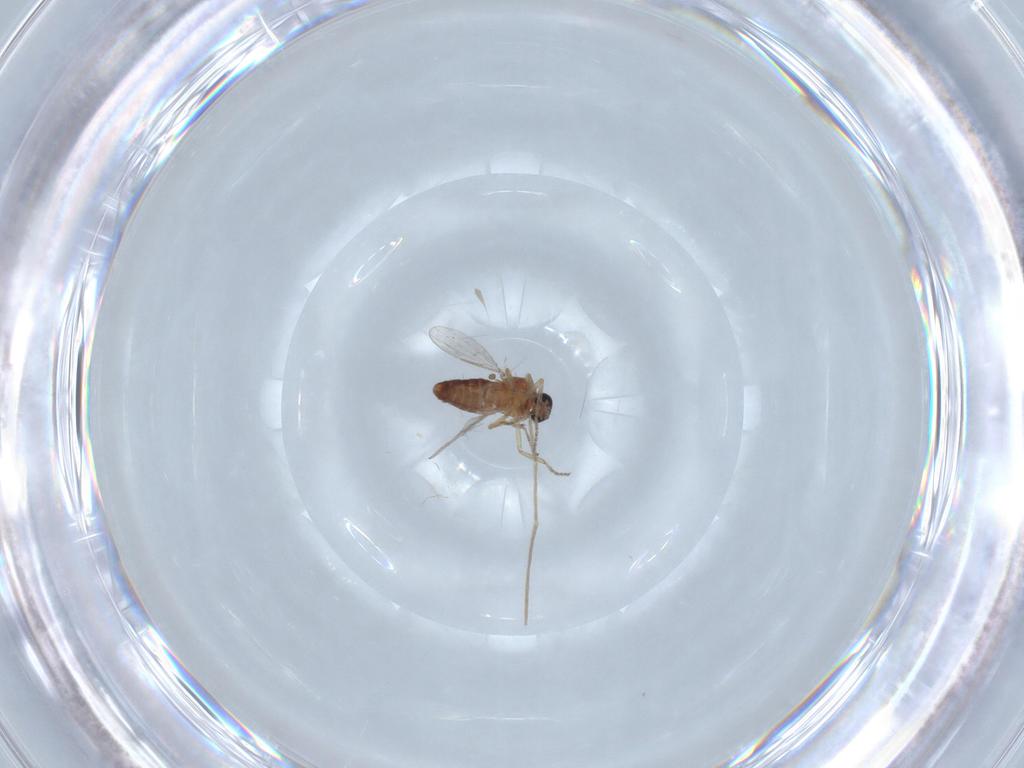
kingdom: Animalia
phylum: Arthropoda
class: Insecta
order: Diptera
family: Ceratopogonidae
